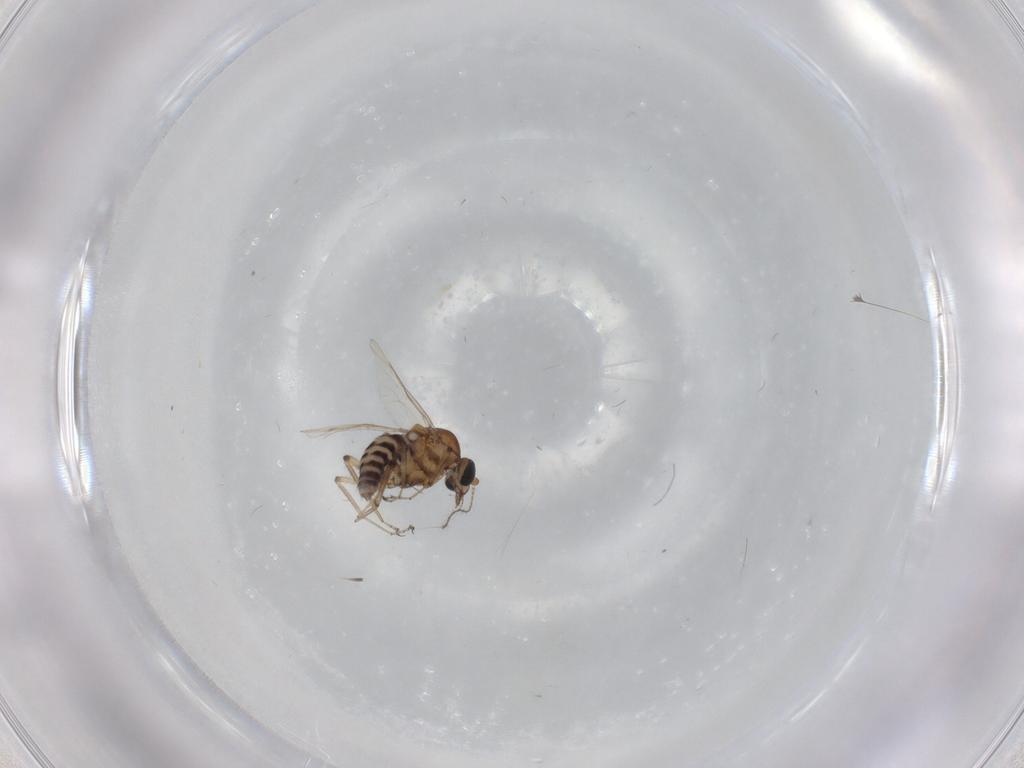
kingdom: Animalia
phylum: Arthropoda
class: Insecta
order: Diptera
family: Ceratopogonidae
